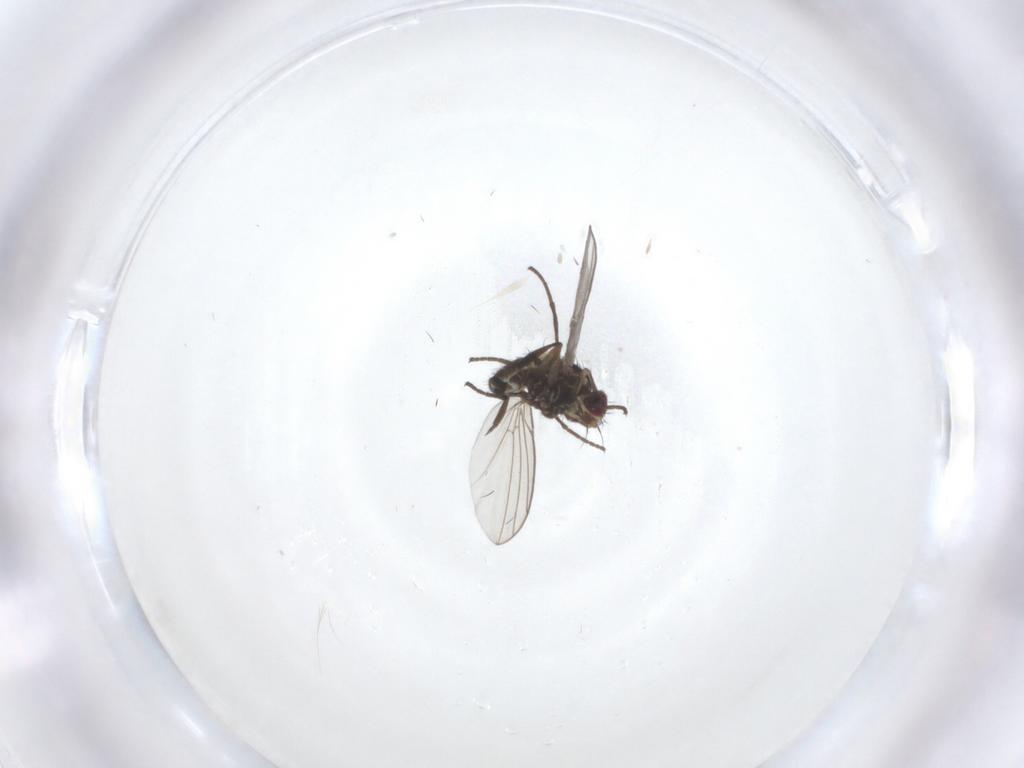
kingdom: Animalia
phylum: Arthropoda
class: Insecta
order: Diptera
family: Agromyzidae
